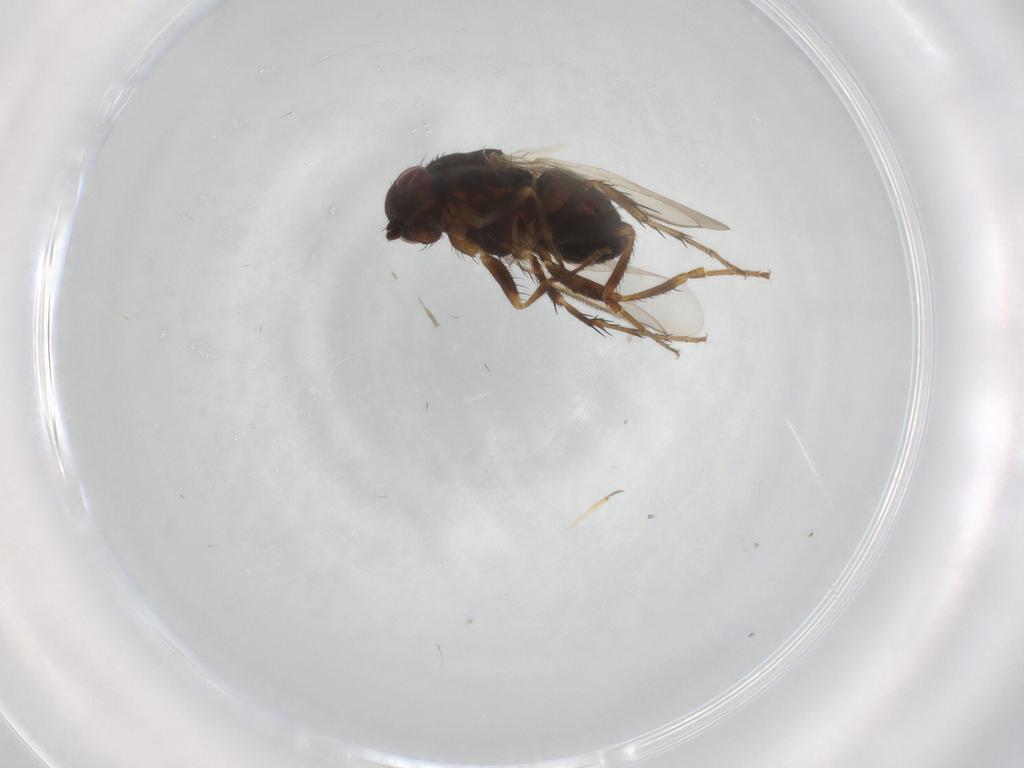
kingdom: Animalia
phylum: Arthropoda
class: Insecta
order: Diptera
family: Sphaeroceridae
